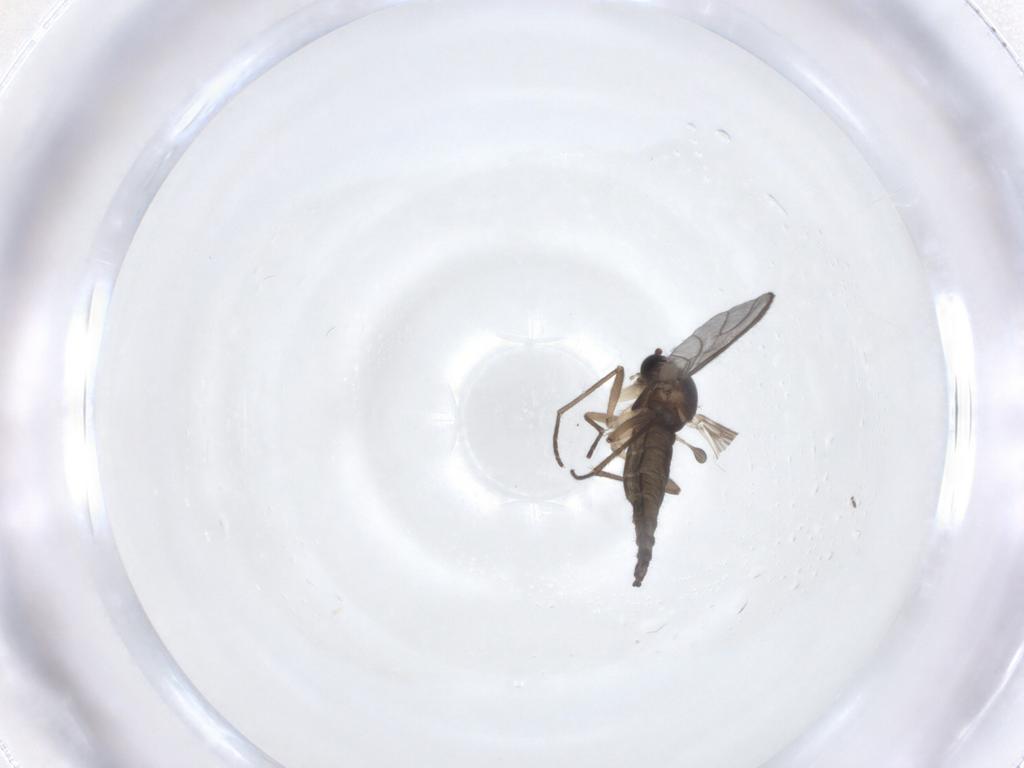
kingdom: Animalia
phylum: Arthropoda
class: Insecta
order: Diptera
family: Sciaridae
